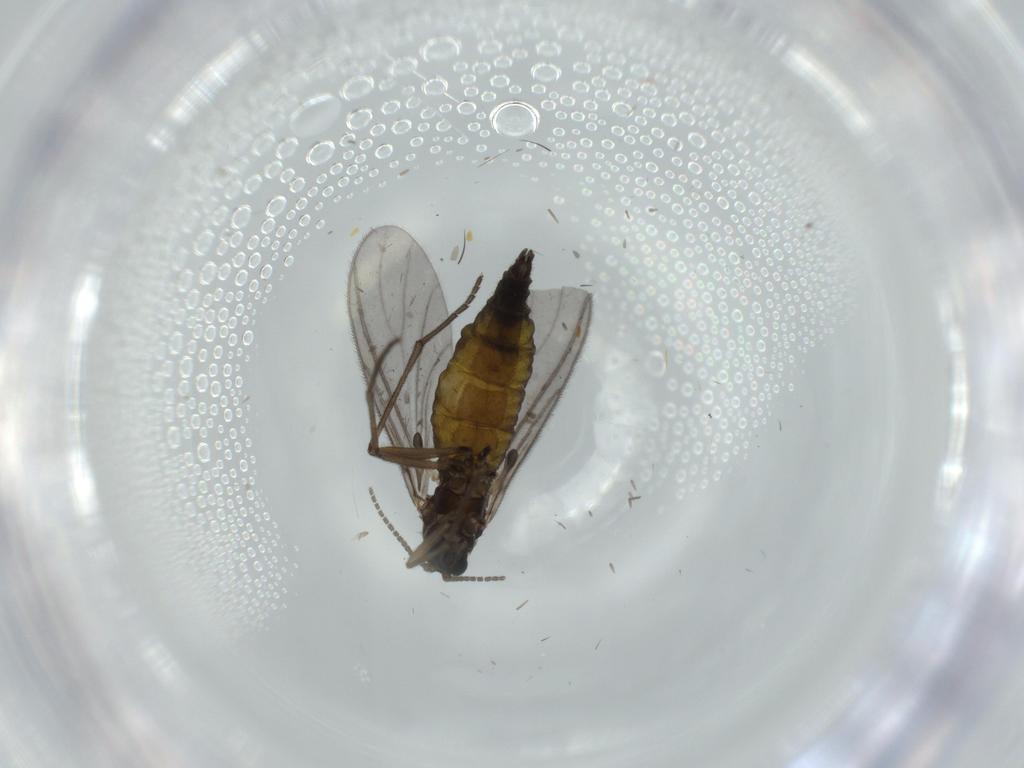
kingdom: Animalia
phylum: Arthropoda
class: Insecta
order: Diptera
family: Sciaridae
